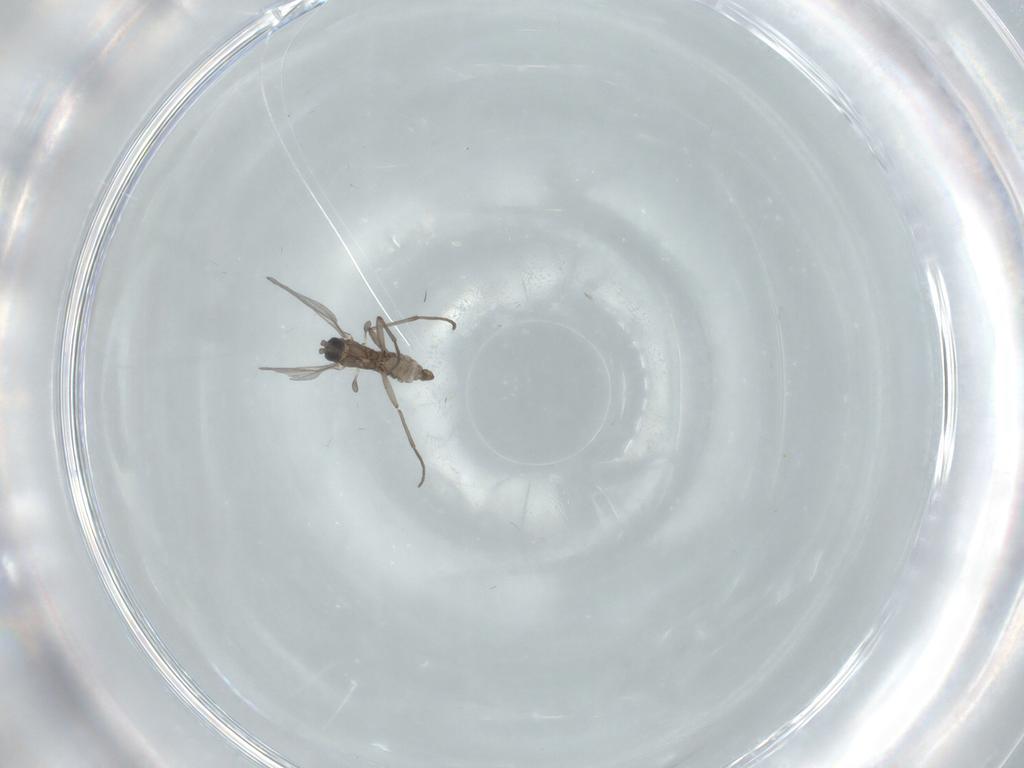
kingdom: Animalia
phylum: Arthropoda
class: Insecta
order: Diptera
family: Sciaridae
